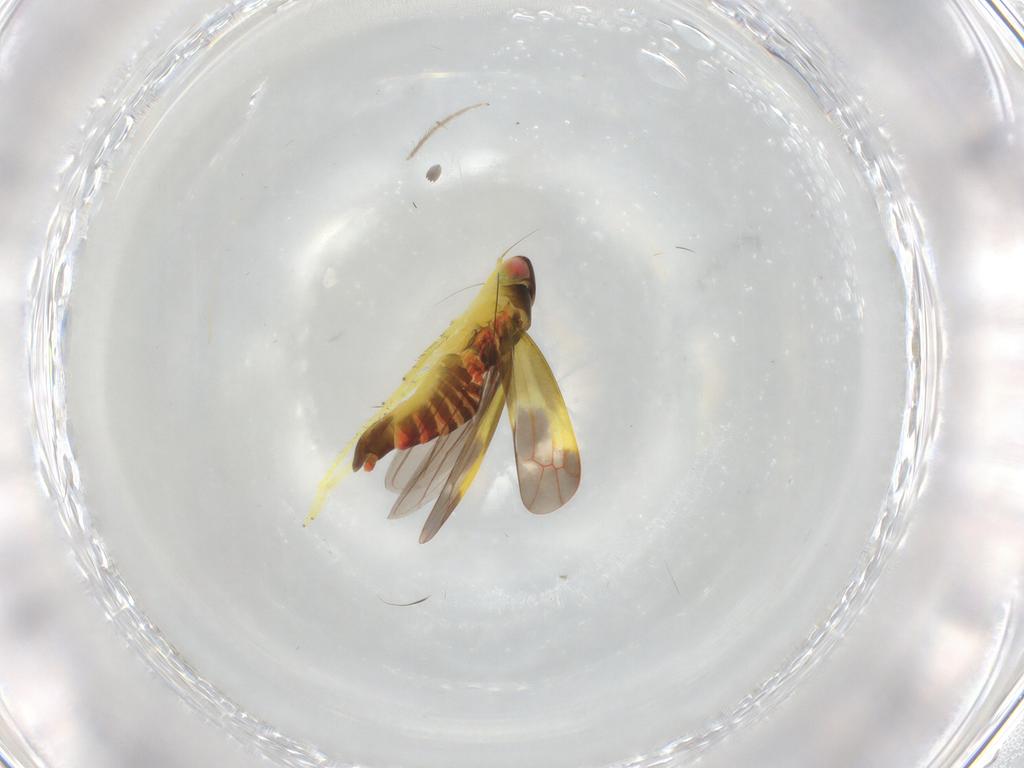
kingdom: Animalia
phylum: Arthropoda
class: Insecta
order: Hemiptera
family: Cicadellidae
